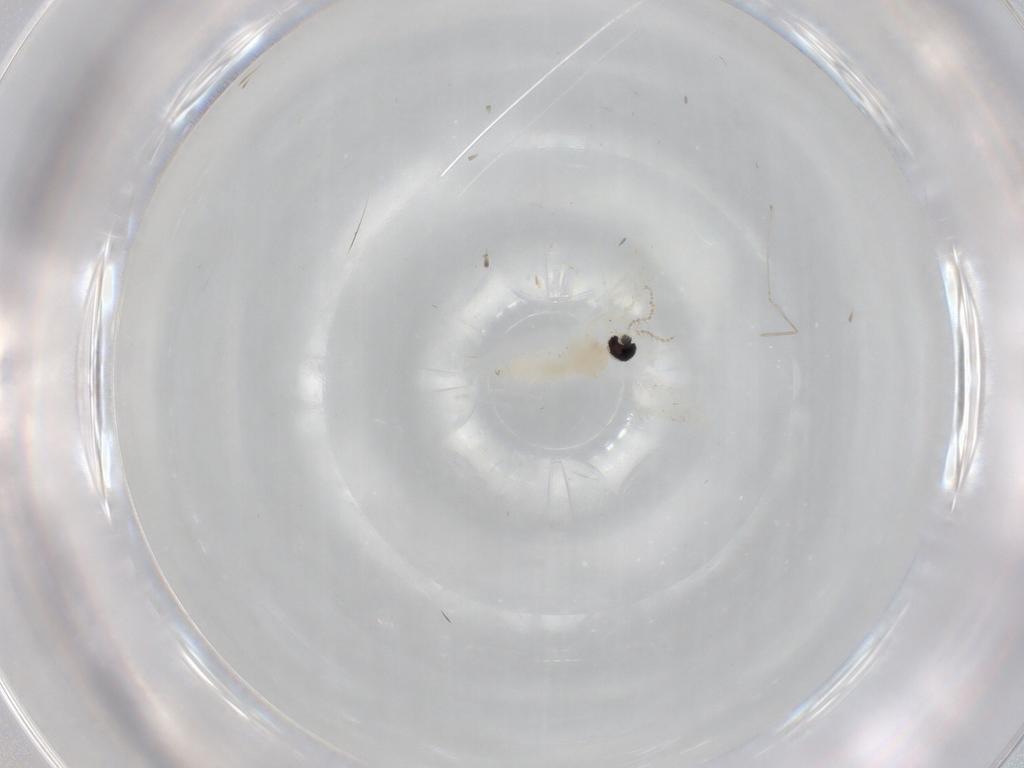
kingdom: Animalia
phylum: Arthropoda
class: Insecta
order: Diptera
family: Cecidomyiidae
